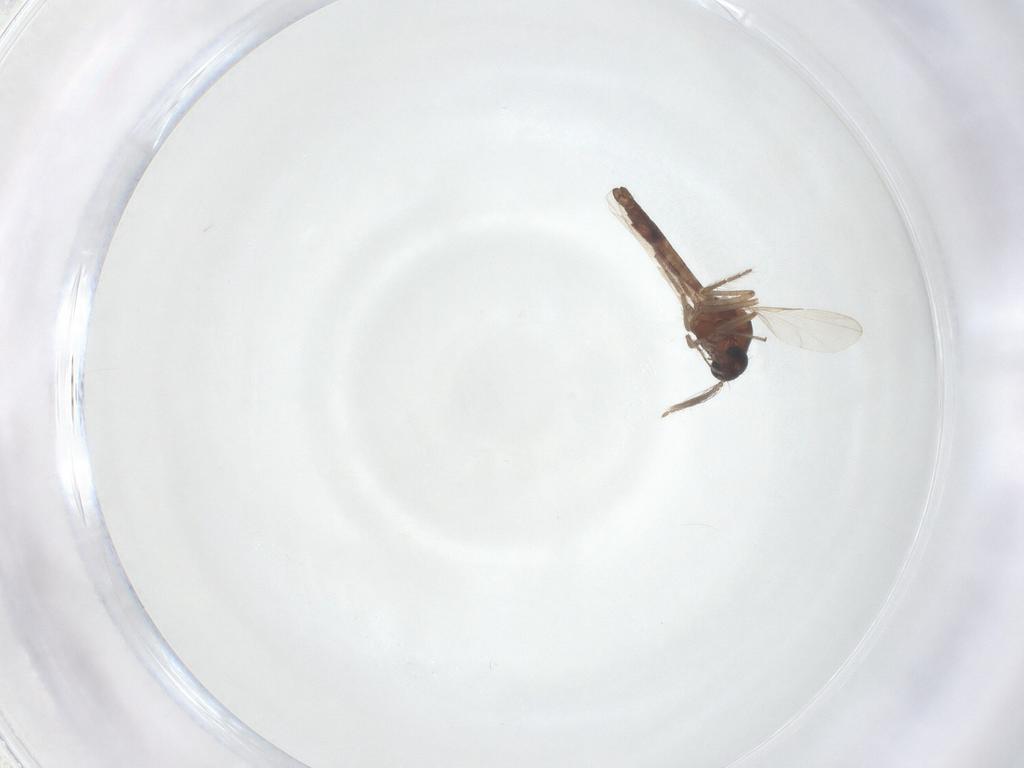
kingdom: Animalia
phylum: Arthropoda
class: Insecta
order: Diptera
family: Ceratopogonidae
